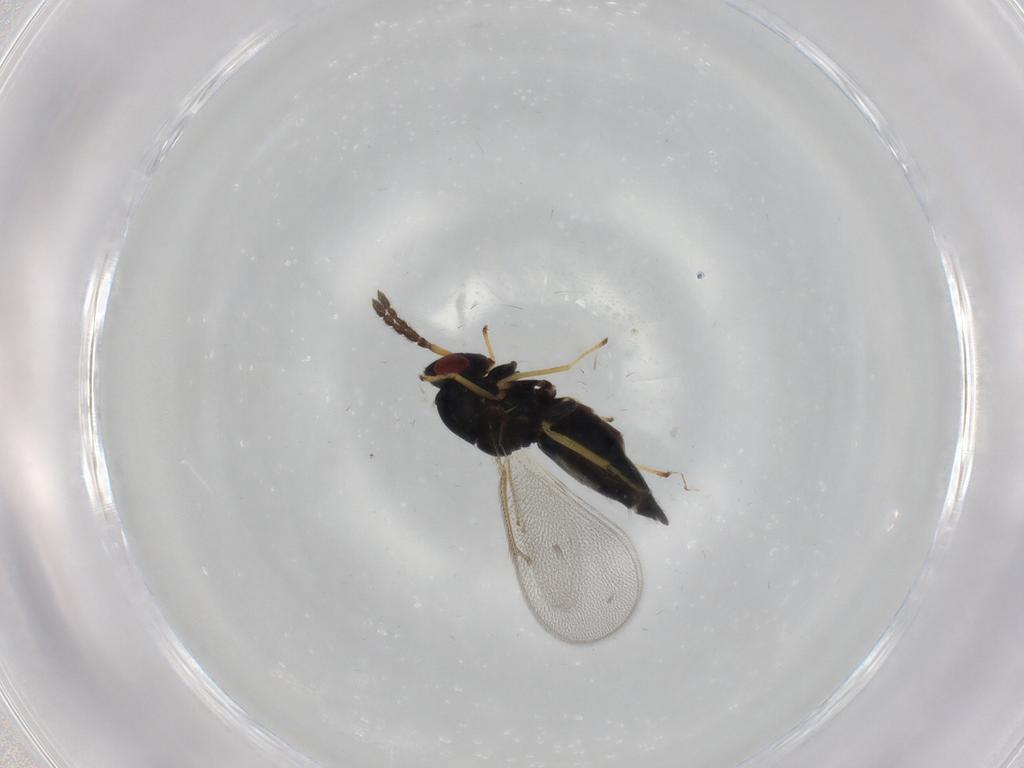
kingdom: Animalia
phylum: Arthropoda
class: Insecta
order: Hymenoptera
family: Eulophidae
